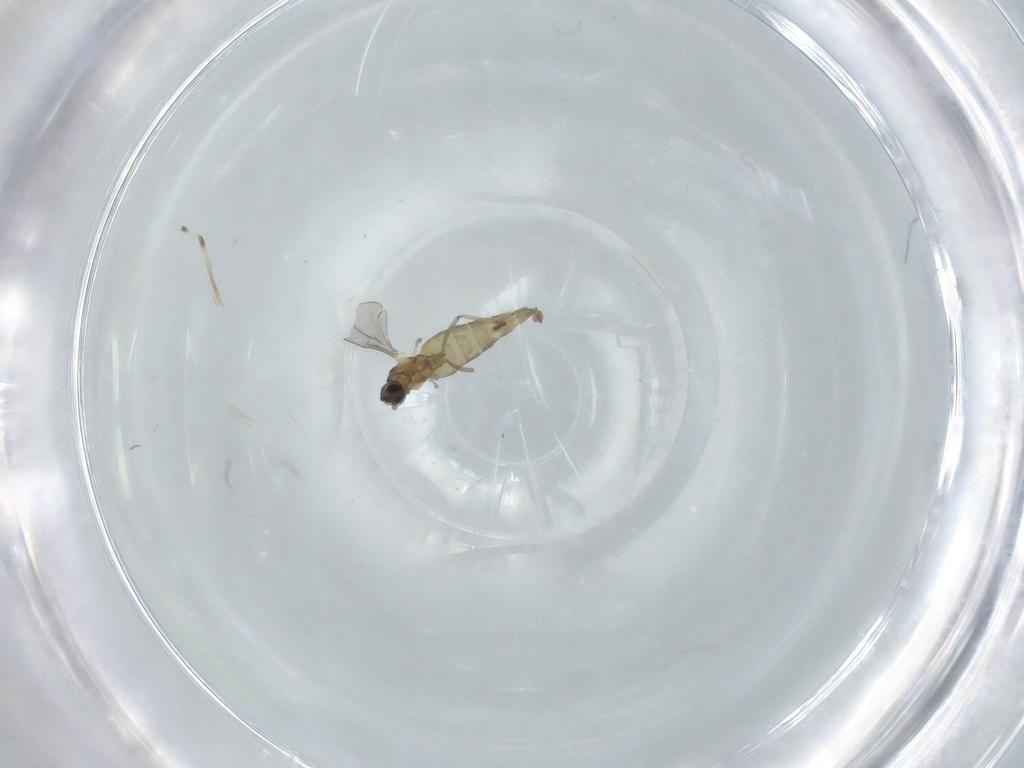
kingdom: Animalia
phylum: Arthropoda
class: Insecta
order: Diptera
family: Cecidomyiidae
